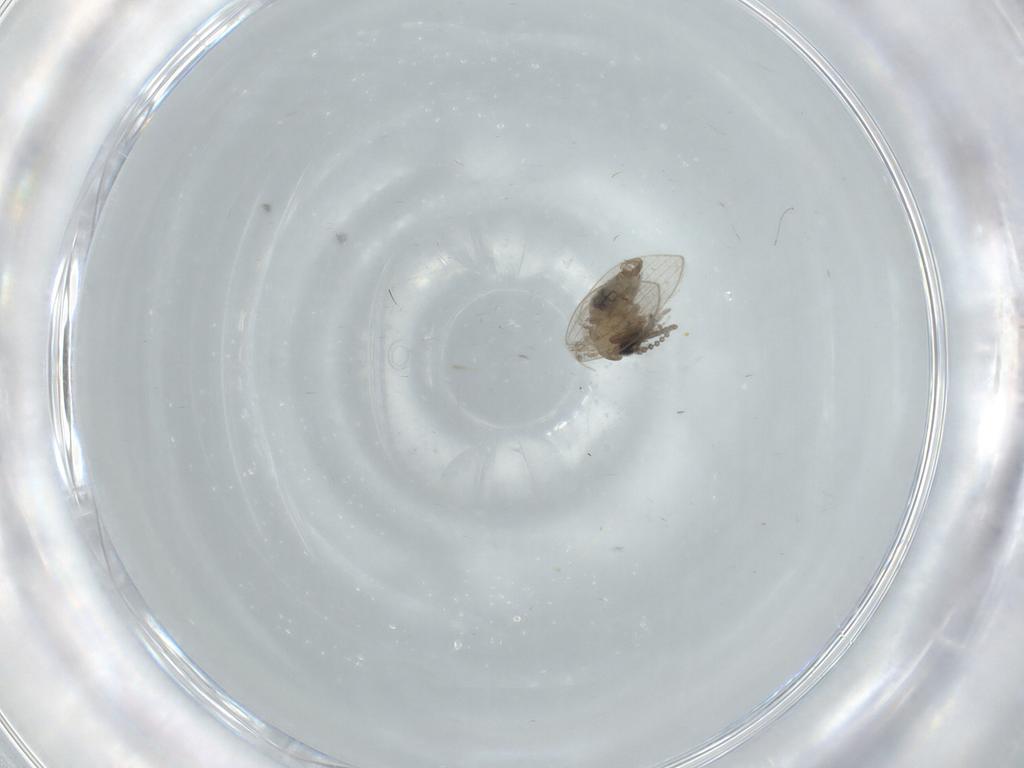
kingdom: Animalia
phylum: Arthropoda
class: Insecta
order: Diptera
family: Psychodidae
